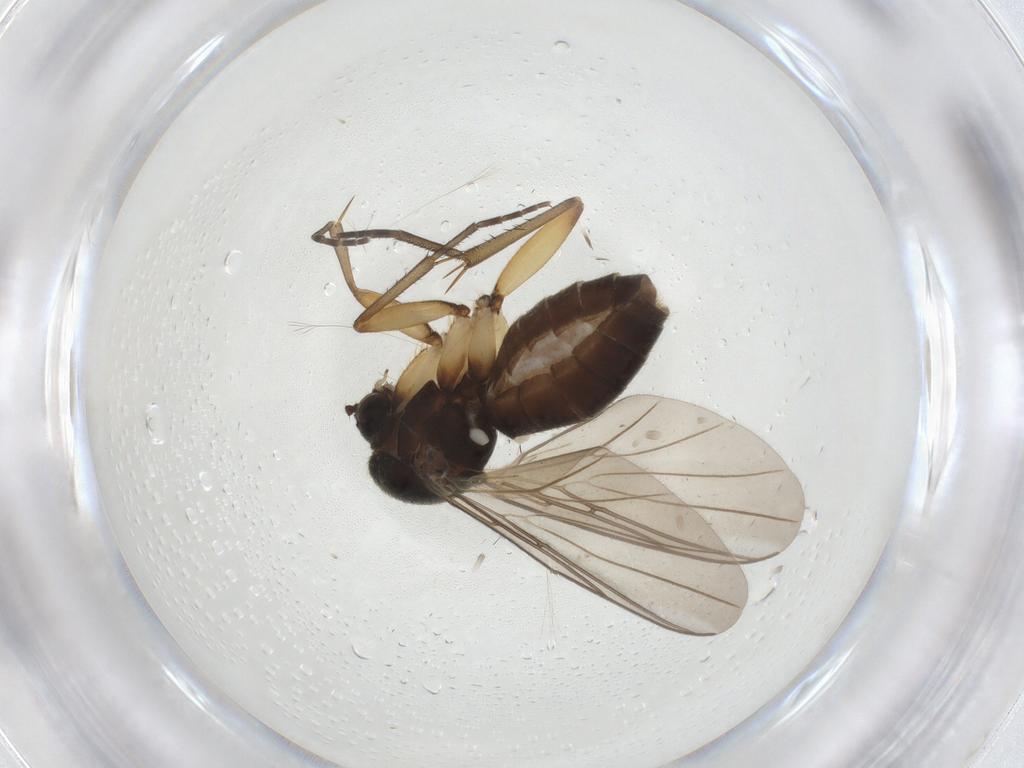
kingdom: Animalia
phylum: Arthropoda
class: Insecta
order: Diptera
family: Mycetophilidae
